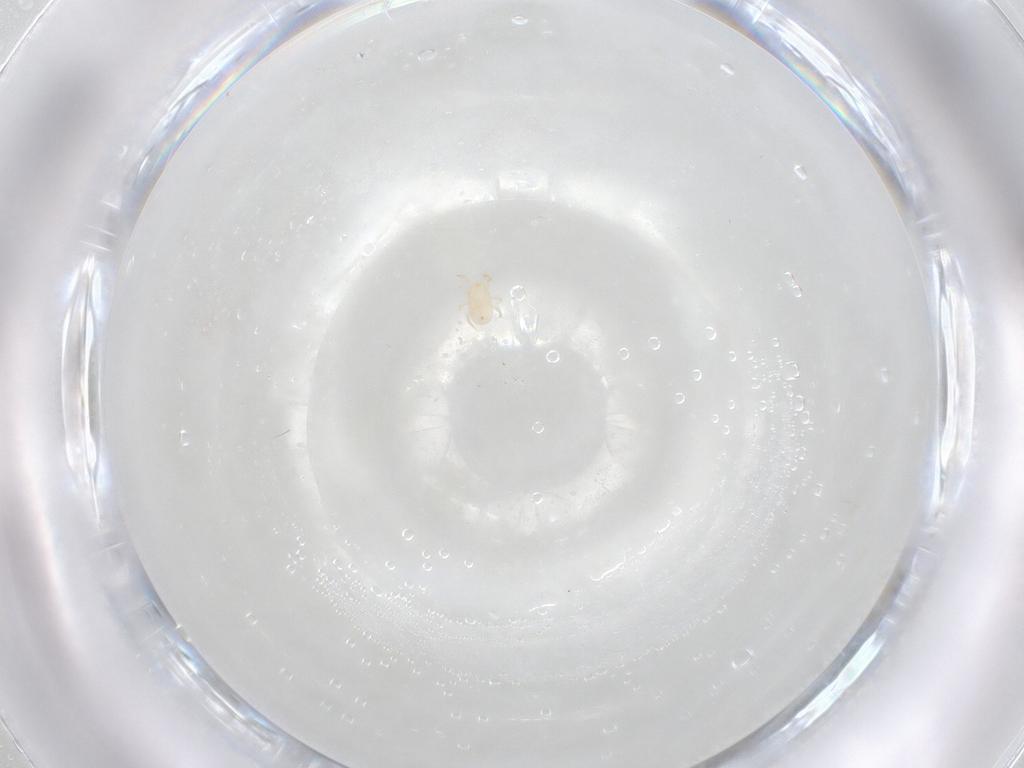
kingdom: Animalia
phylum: Arthropoda
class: Arachnida
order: Mesostigmata
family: Ameroseiidae
